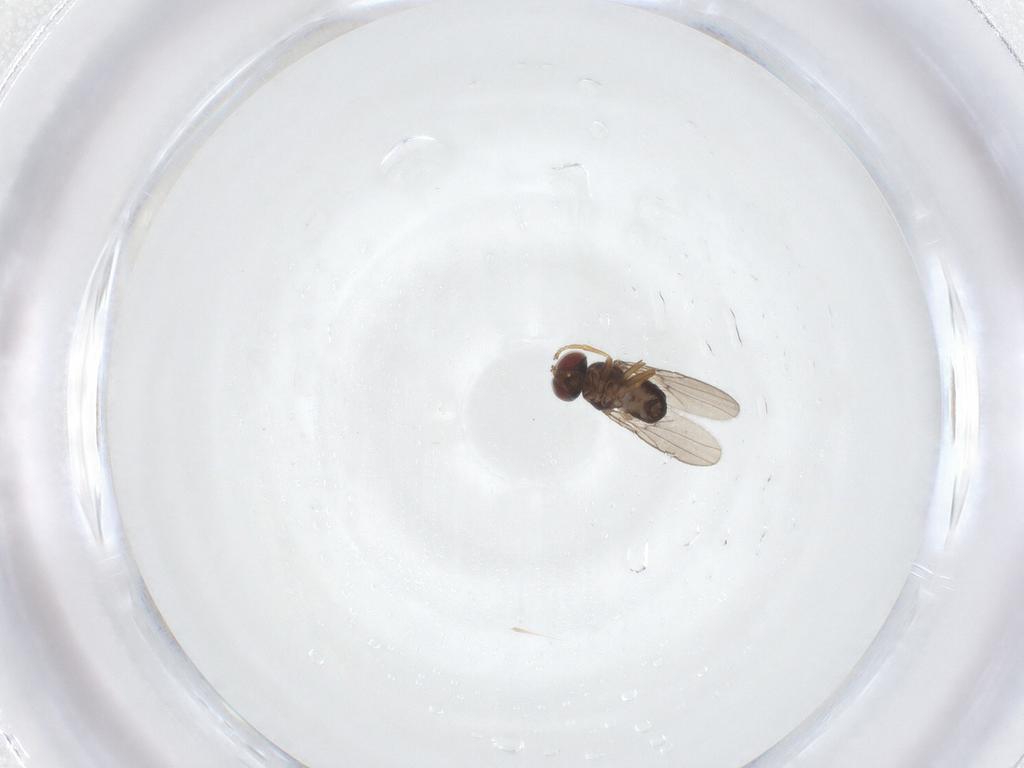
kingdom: Animalia
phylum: Arthropoda
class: Insecta
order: Diptera
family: Ephydridae
